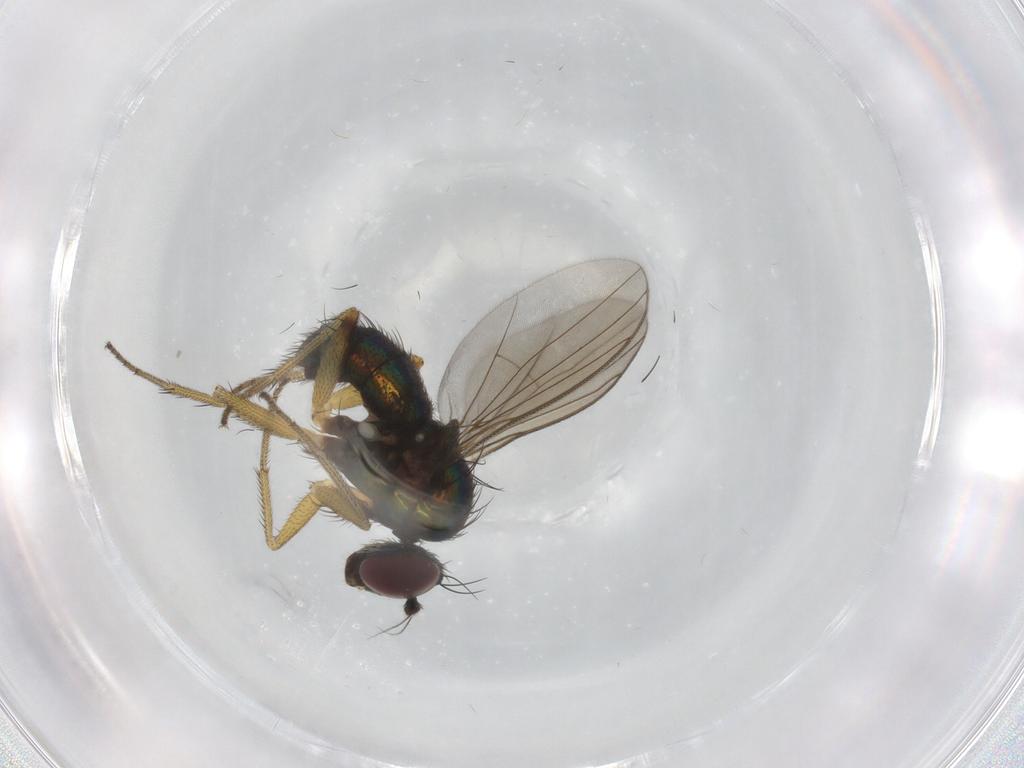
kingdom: Animalia
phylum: Arthropoda
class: Insecta
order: Diptera
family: Dolichopodidae
